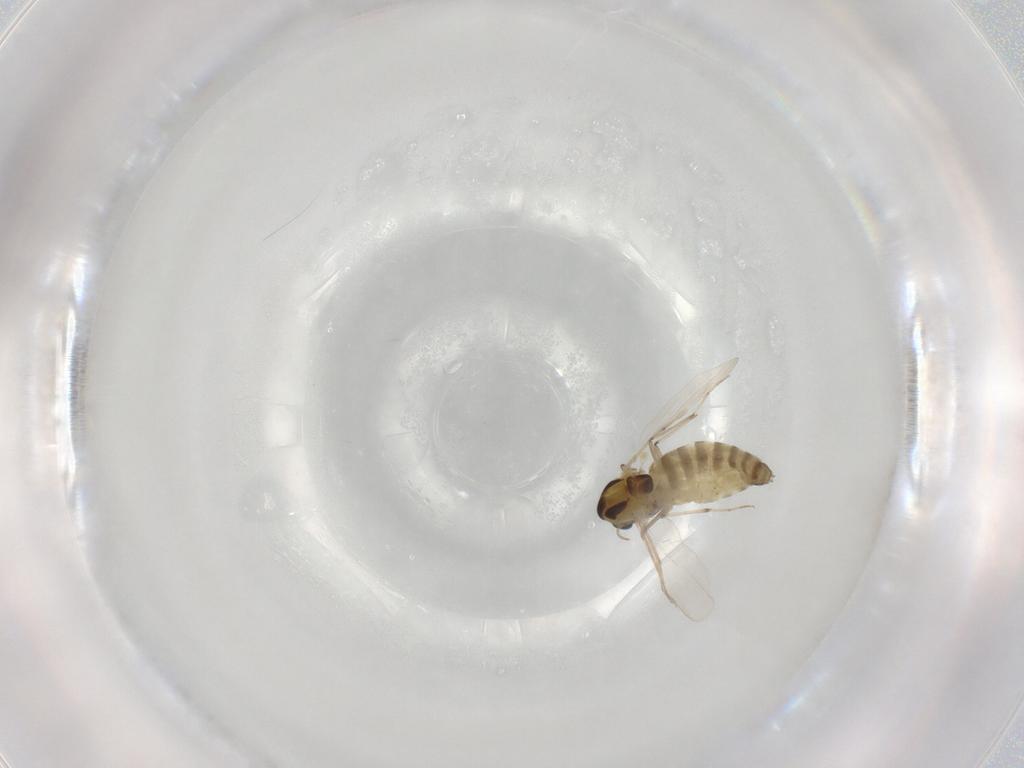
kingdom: Animalia
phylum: Arthropoda
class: Insecta
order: Diptera
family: Chironomidae
